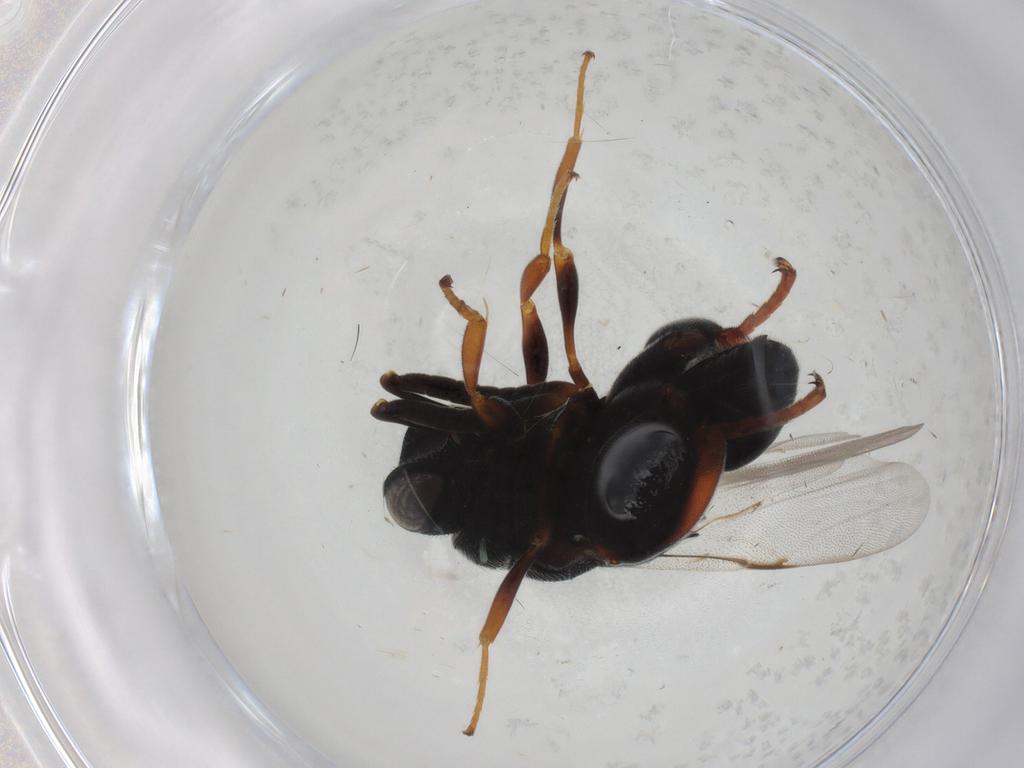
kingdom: Animalia
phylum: Arthropoda
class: Insecta
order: Hymenoptera
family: Chalcididae
